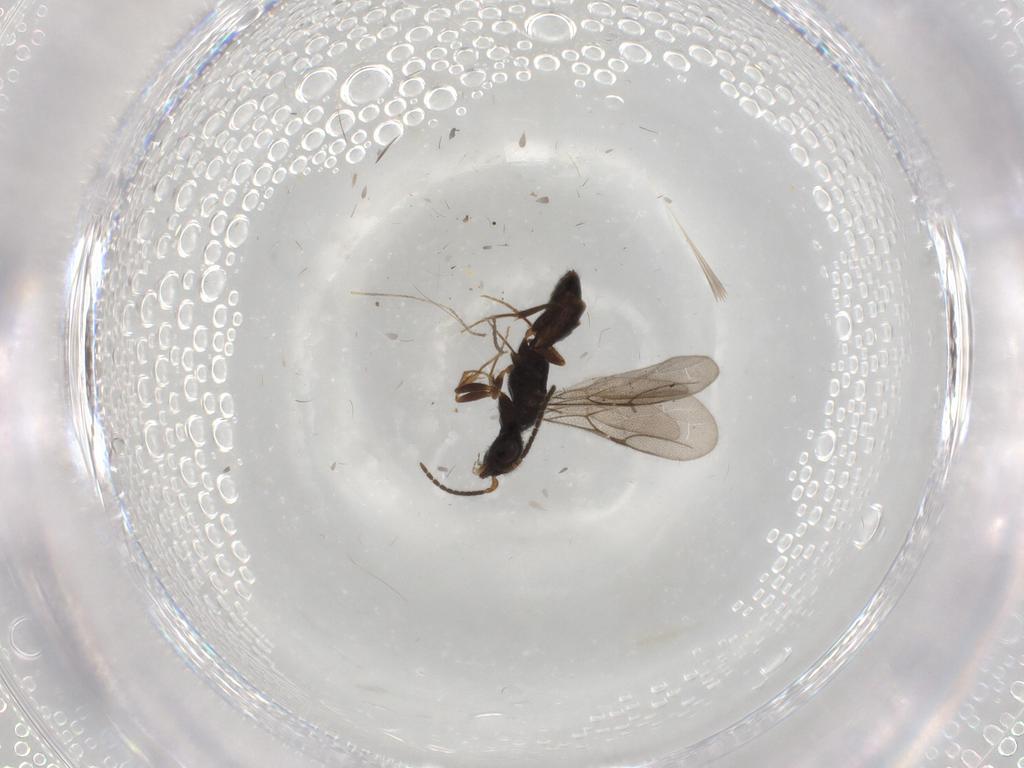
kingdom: Animalia
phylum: Arthropoda
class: Insecta
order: Hymenoptera
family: Bethylidae
